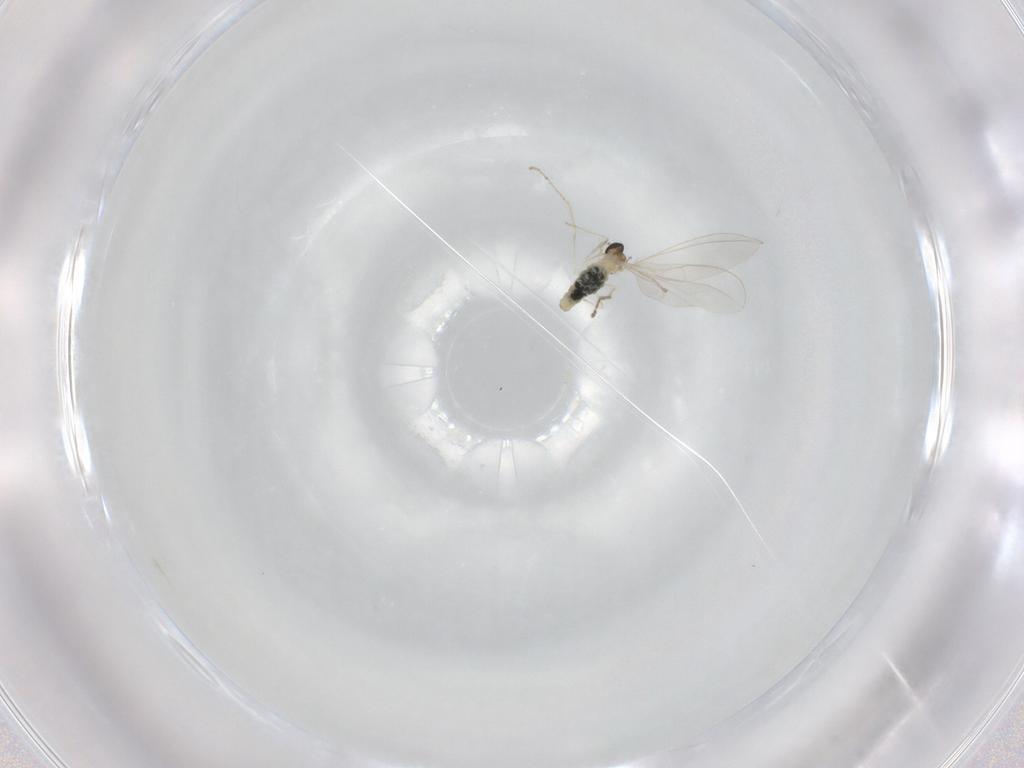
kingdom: Animalia
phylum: Arthropoda
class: Insecta
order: Diptera
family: Cecidomyiidae
